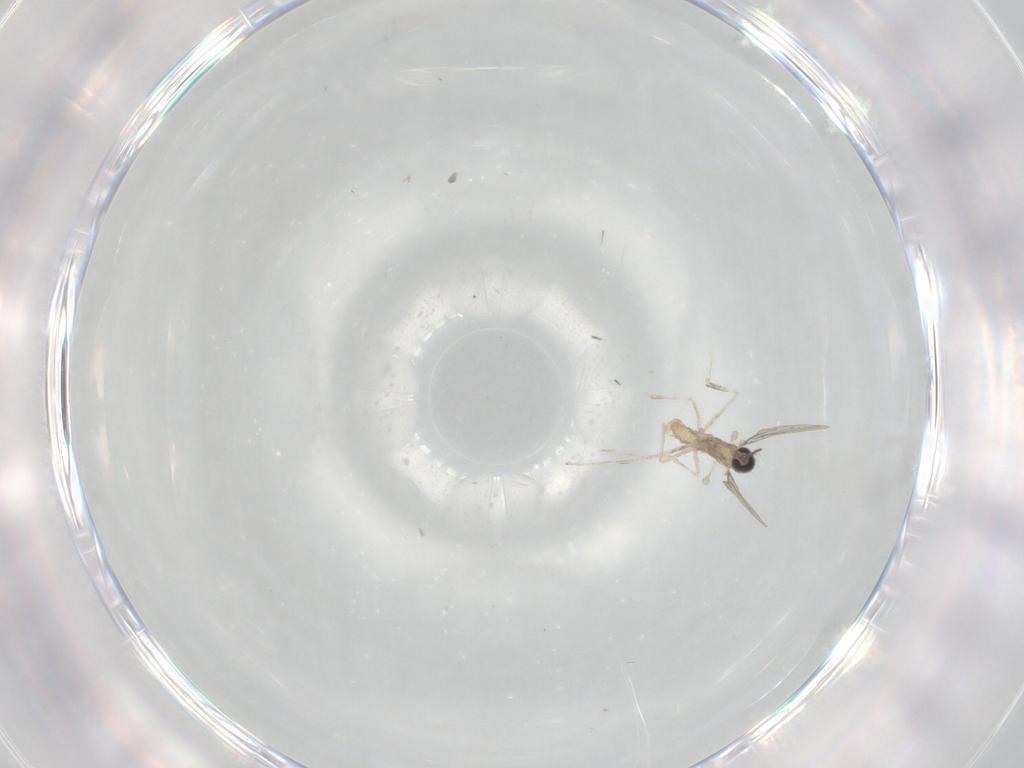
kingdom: Animalia
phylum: Arthropoda
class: Insecta
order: Diptera
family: Cecidomyiidae
